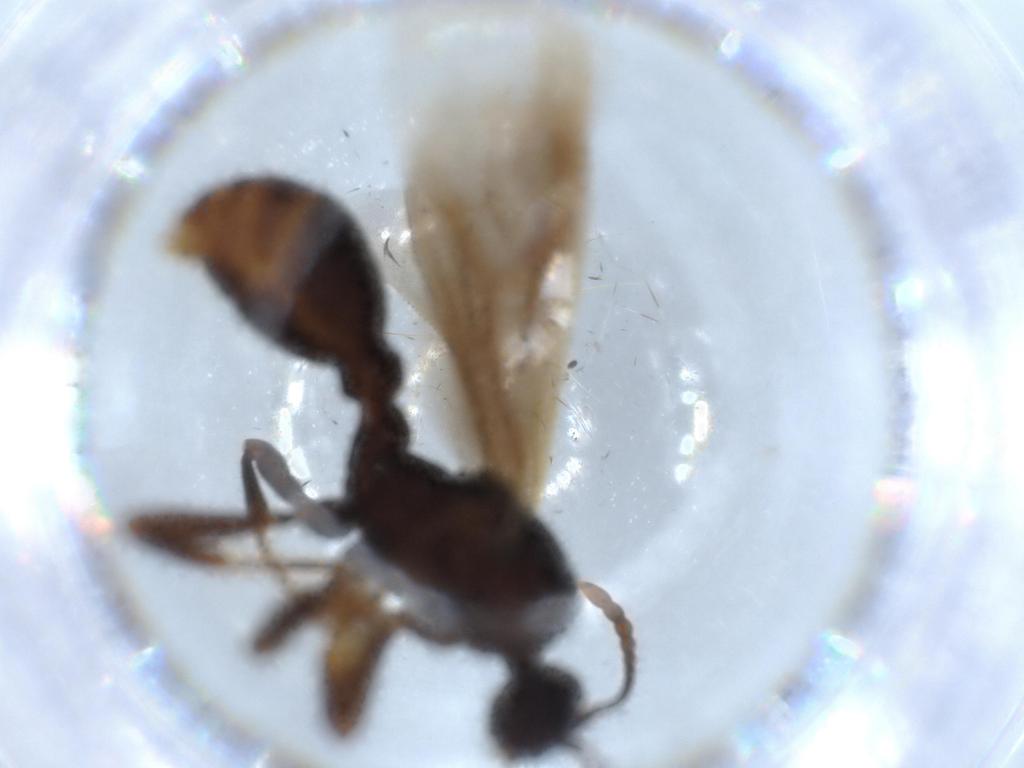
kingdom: Animalia
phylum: Arthropoda
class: Insecta
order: Hymenoptera
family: Formicidae
